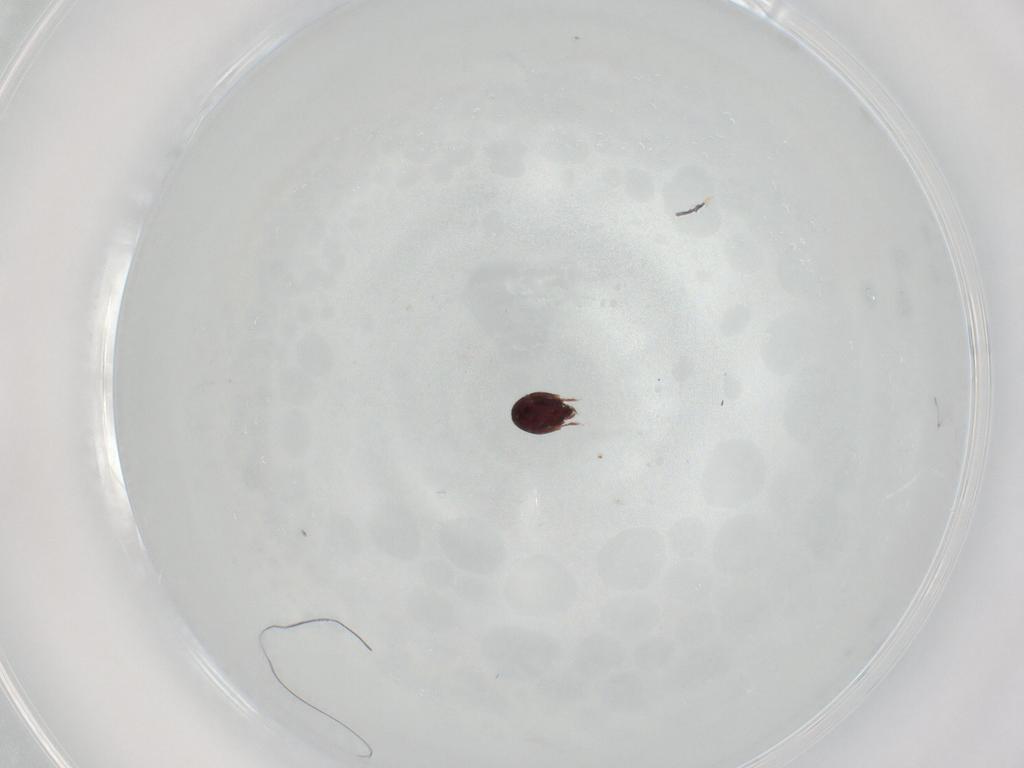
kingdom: Animalia
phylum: Arthropoda
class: Arachnida
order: Sarcoptiformes
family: Achipteriidae
